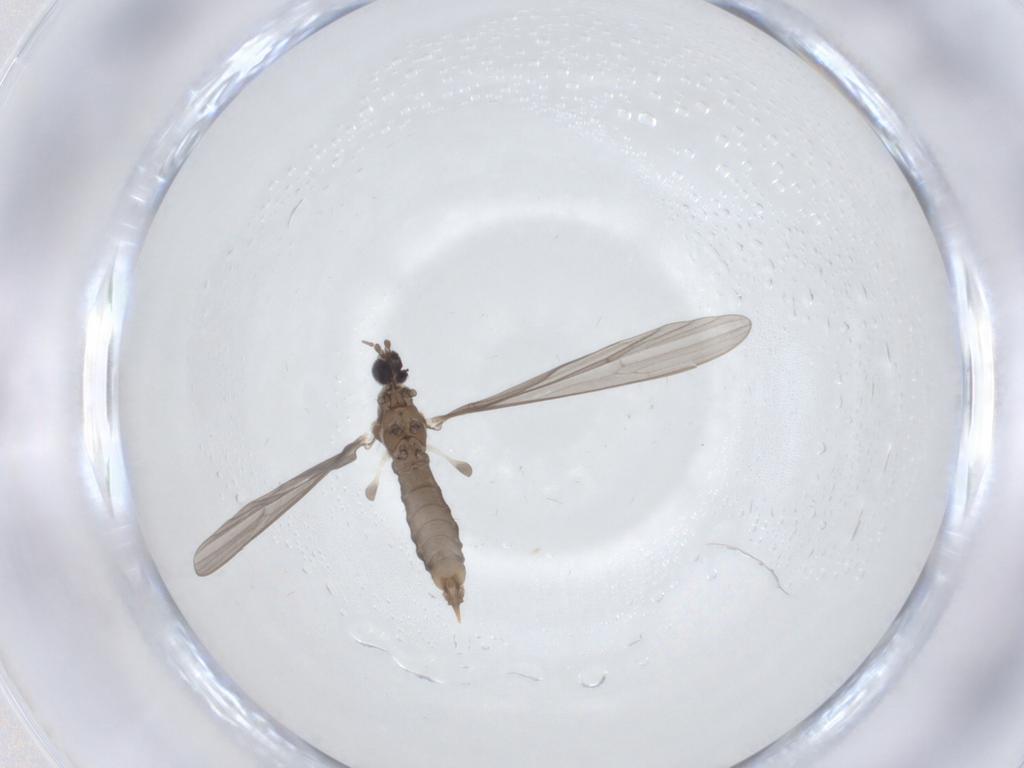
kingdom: Animalia
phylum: Arthropoda
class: Insecta
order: Diptera
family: Limoniidae
